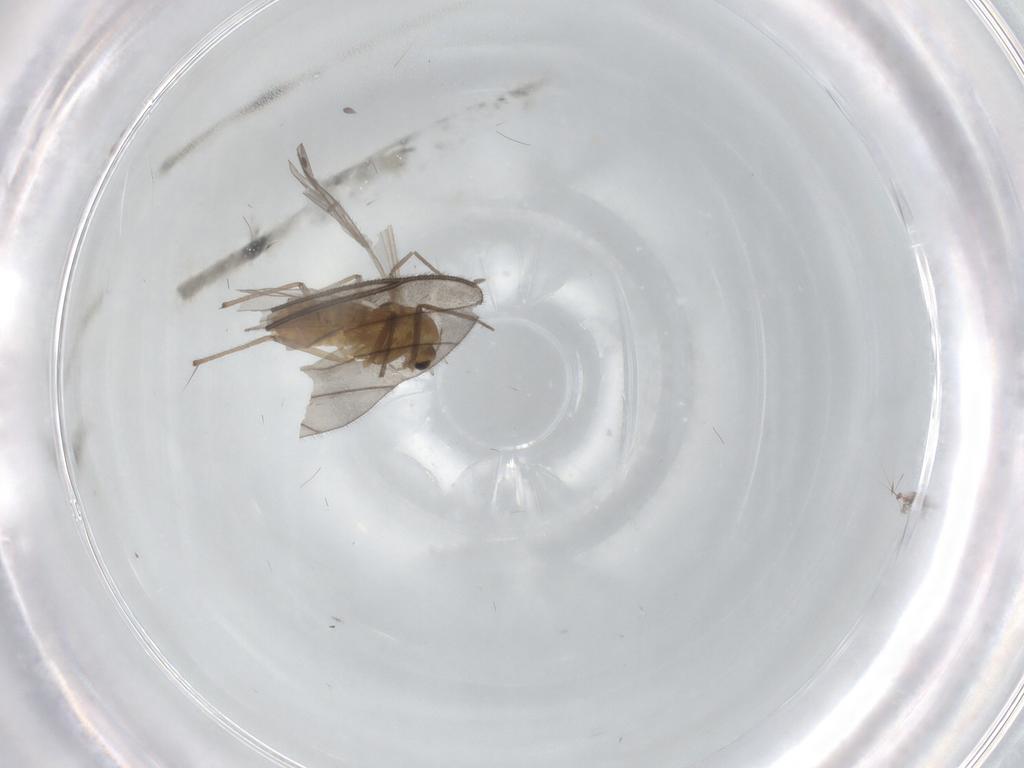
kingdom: Animalia
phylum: Arthropoda
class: Insecta
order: Diptera
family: Chironomidae
